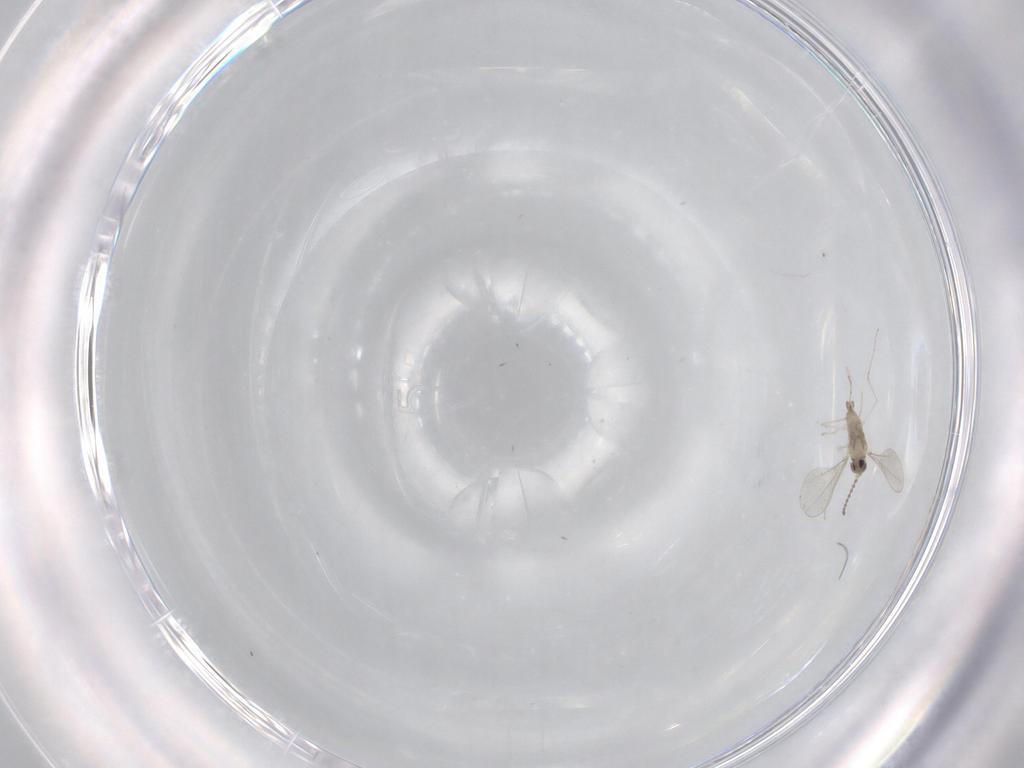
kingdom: Animalia
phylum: Arthropoda
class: Insecta
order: Diptera
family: Cecidomyiidae
